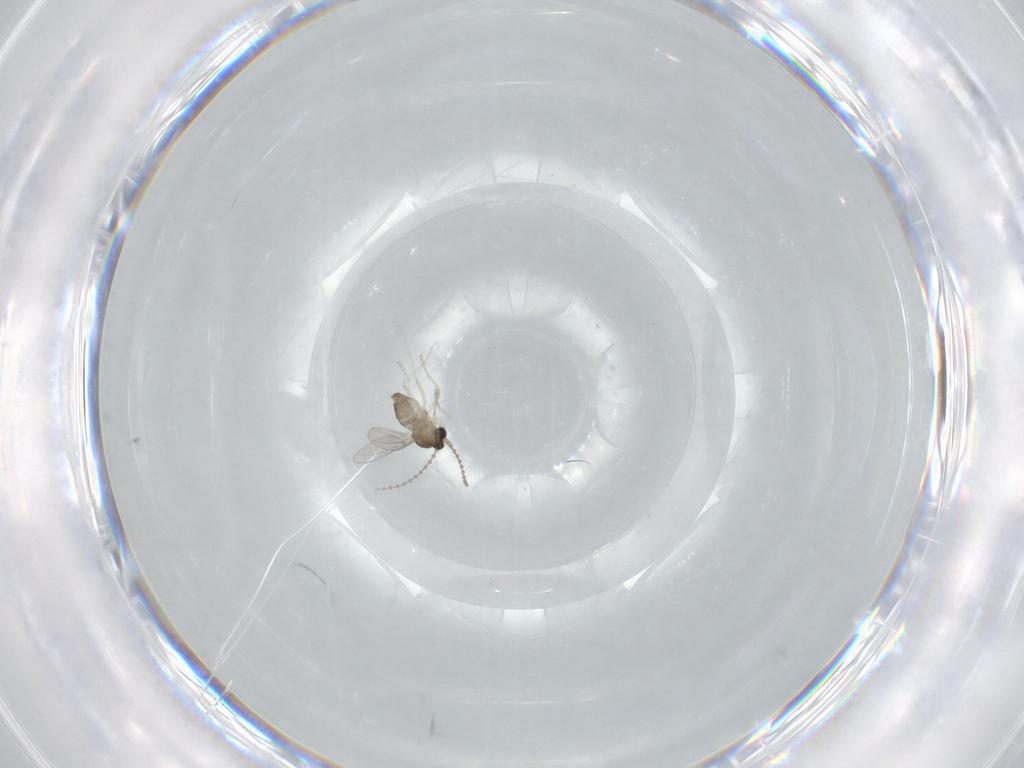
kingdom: Animalia
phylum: Arthropoda
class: Insecta
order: Diptera
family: Cecidomyiidae
